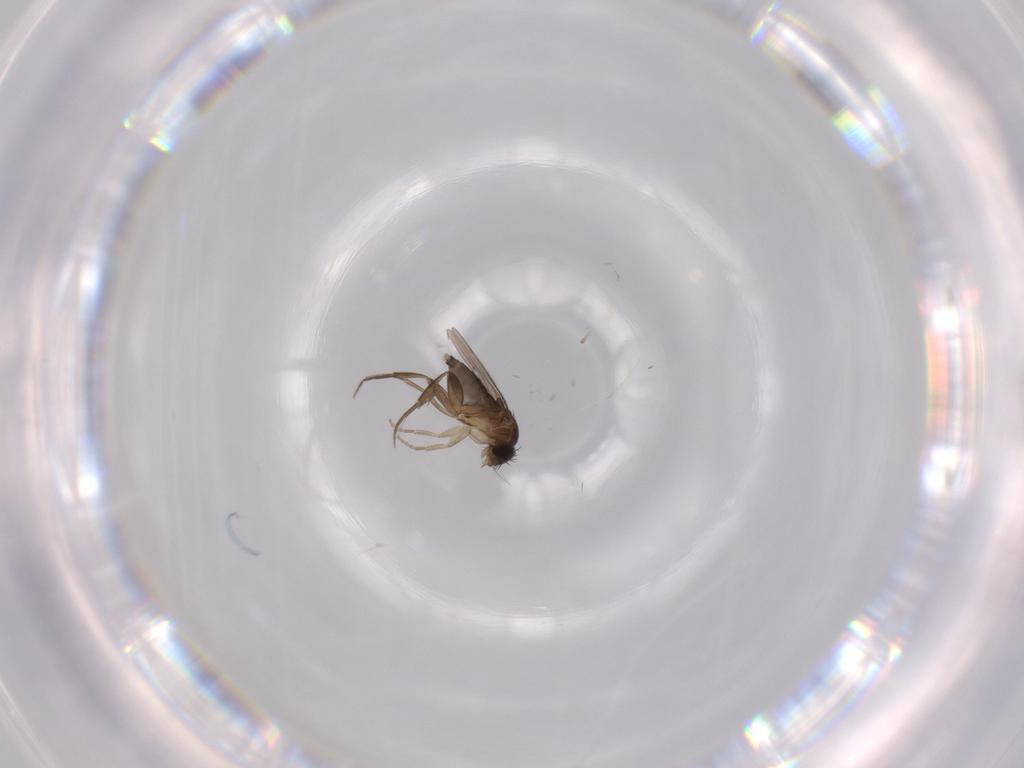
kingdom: Animalia
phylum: Arthropoda
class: Insecta
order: Diptera
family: Phoridae
